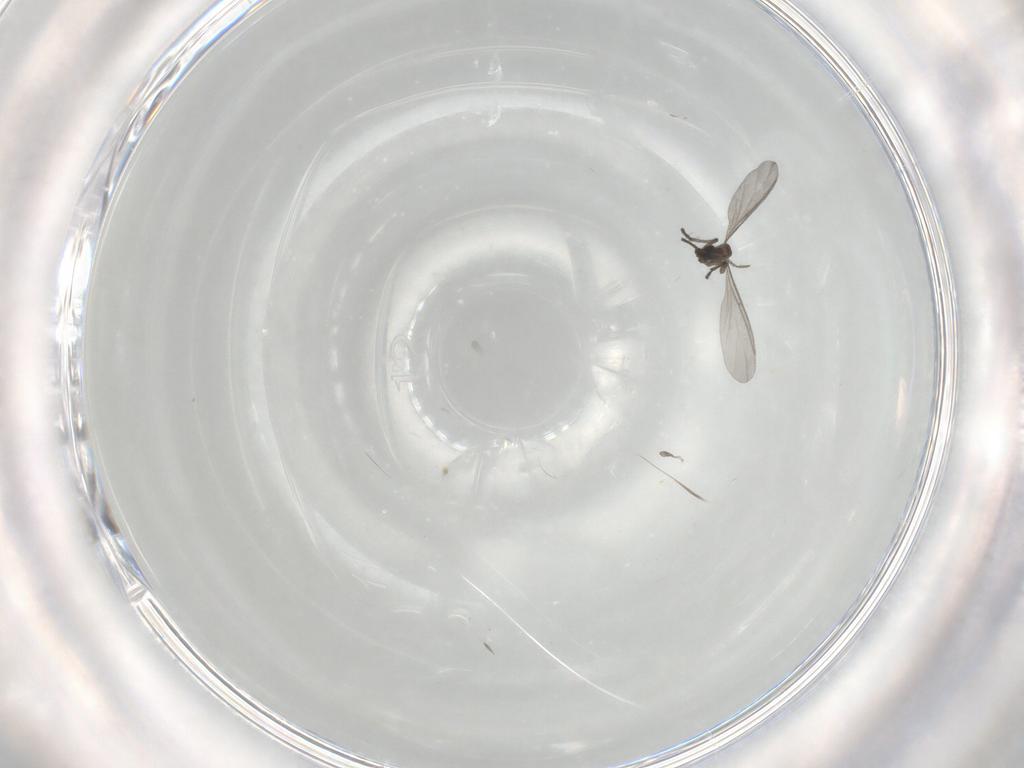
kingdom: Animalia
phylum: Arthropoda
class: Insecta
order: Diptera
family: Sciaridae
